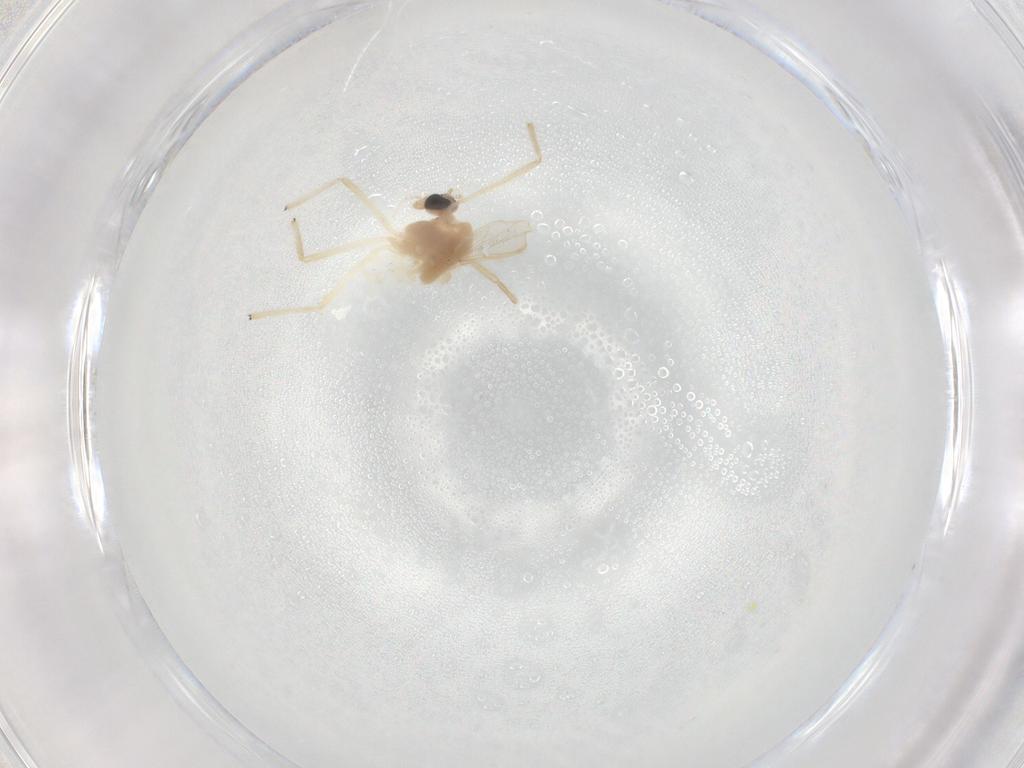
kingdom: Animalia
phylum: Arthropoda
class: Insecta
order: Diptera
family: Chironomidae
